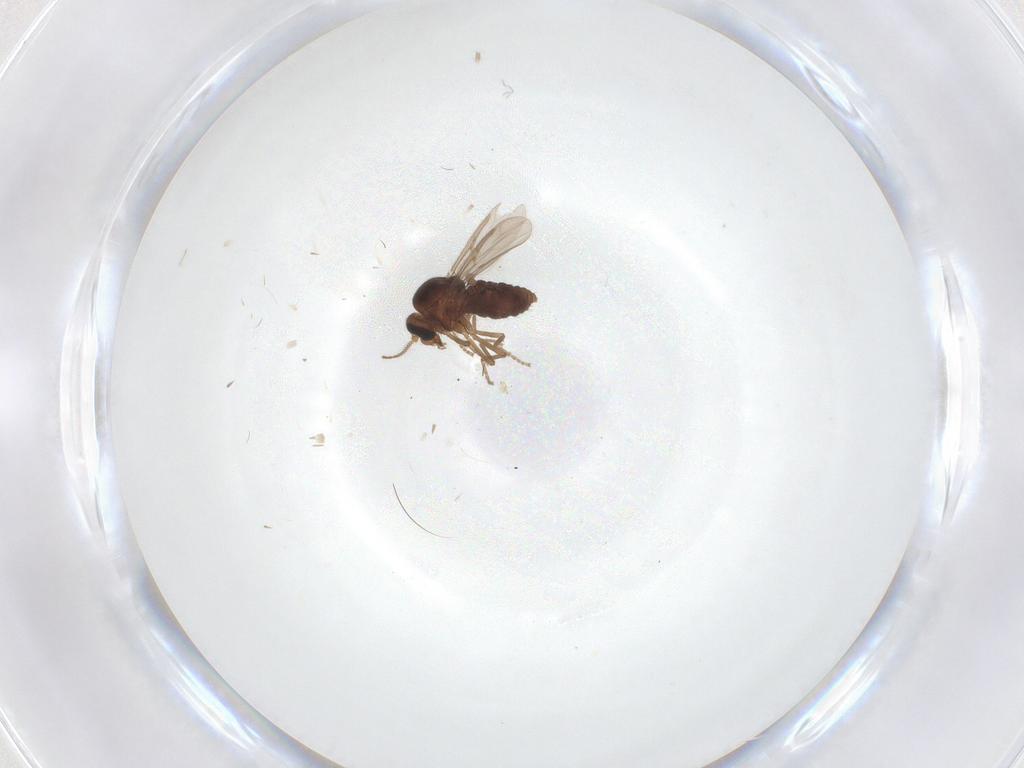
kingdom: Animalia
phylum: Arthropoda
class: Insecta
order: Diptera
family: Ceratopogonidae
